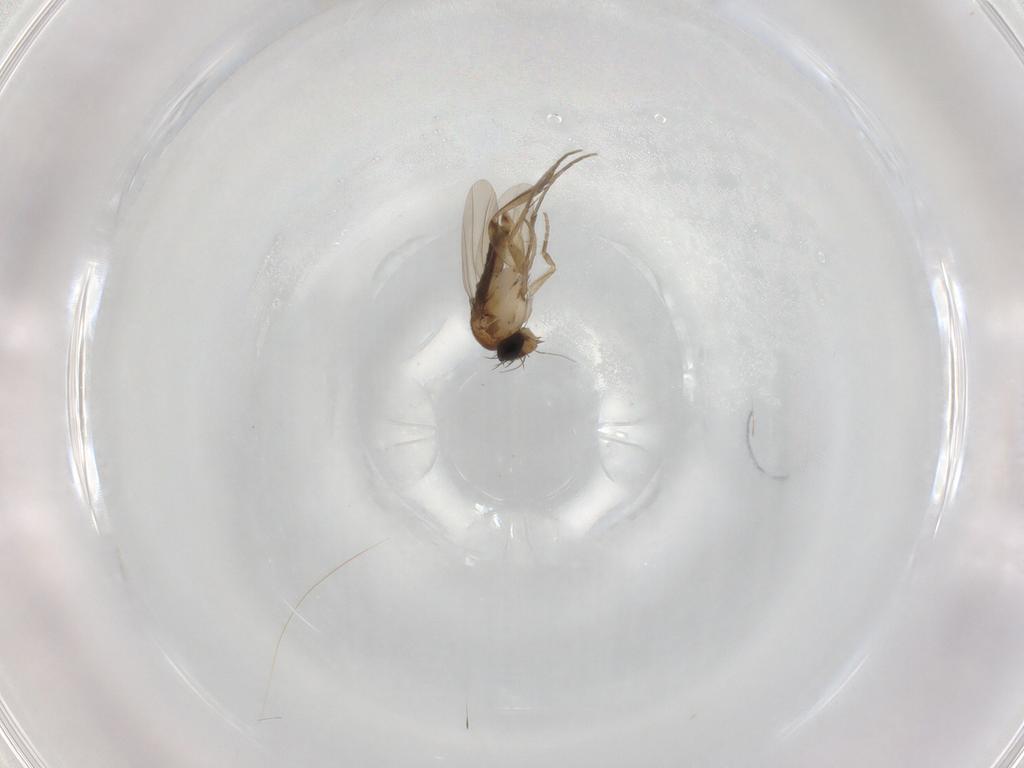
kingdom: Animalia
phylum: Arthropoda
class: Insecta
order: Diptera
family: Phoridae
